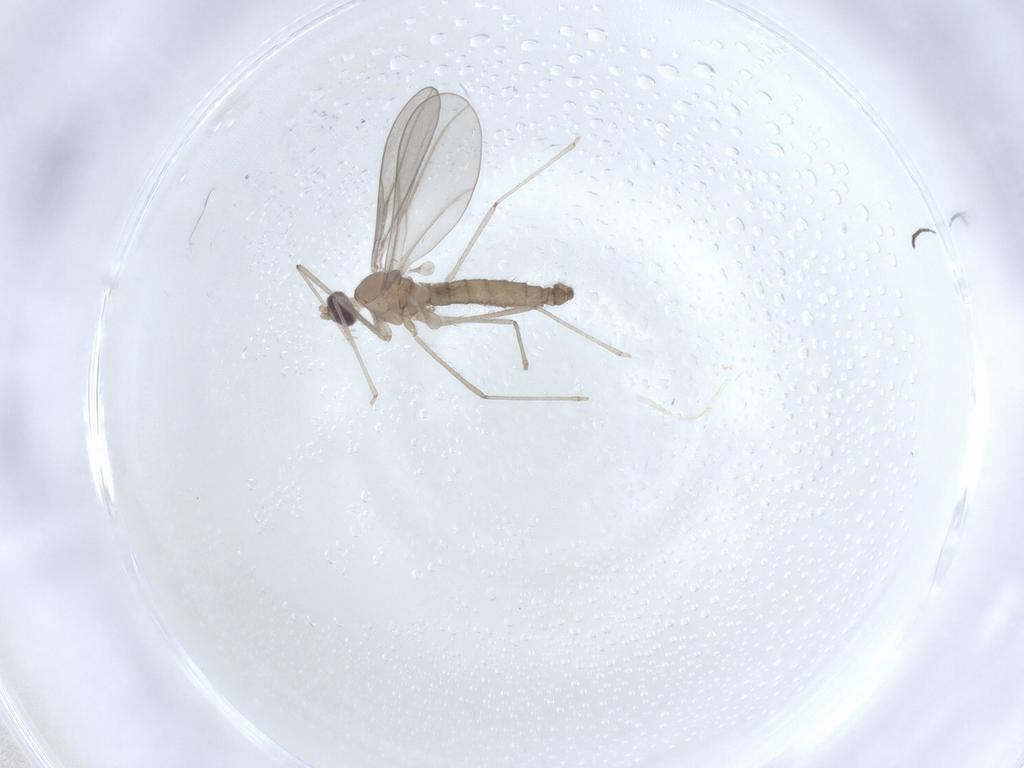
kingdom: Animalia
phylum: Arthropoda
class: Insecta
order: Diptera
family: Cecidomyiidae
